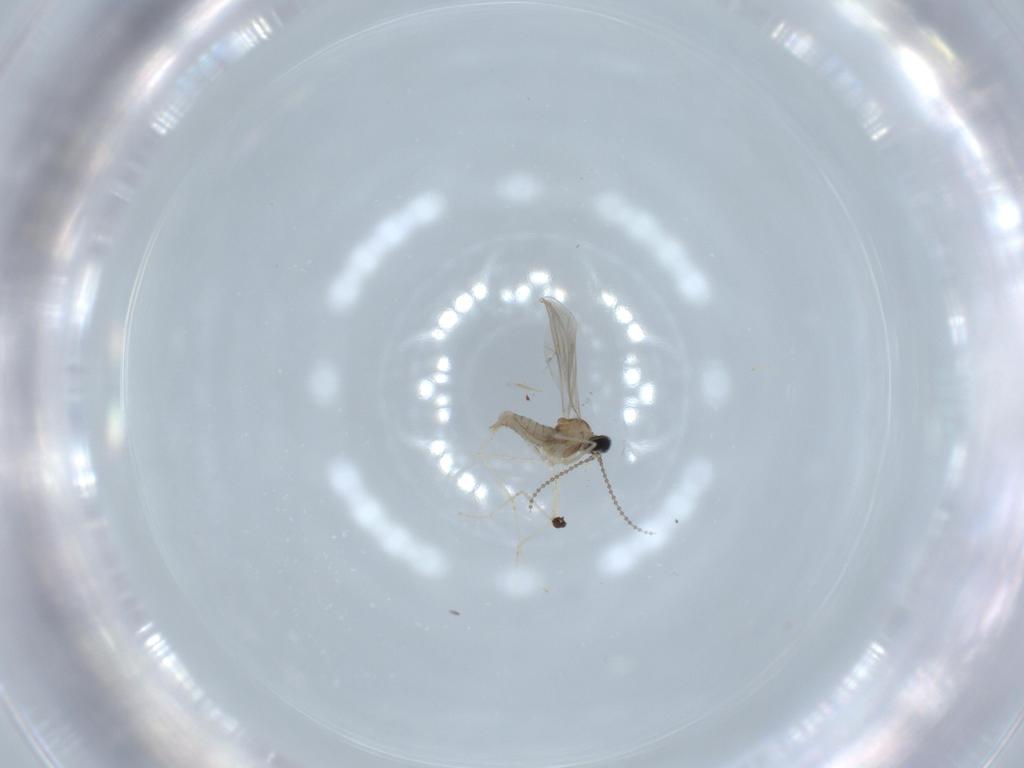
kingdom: Animalia
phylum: Arthropoda
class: Insecta
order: Diptera
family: Cecidomyiidae
